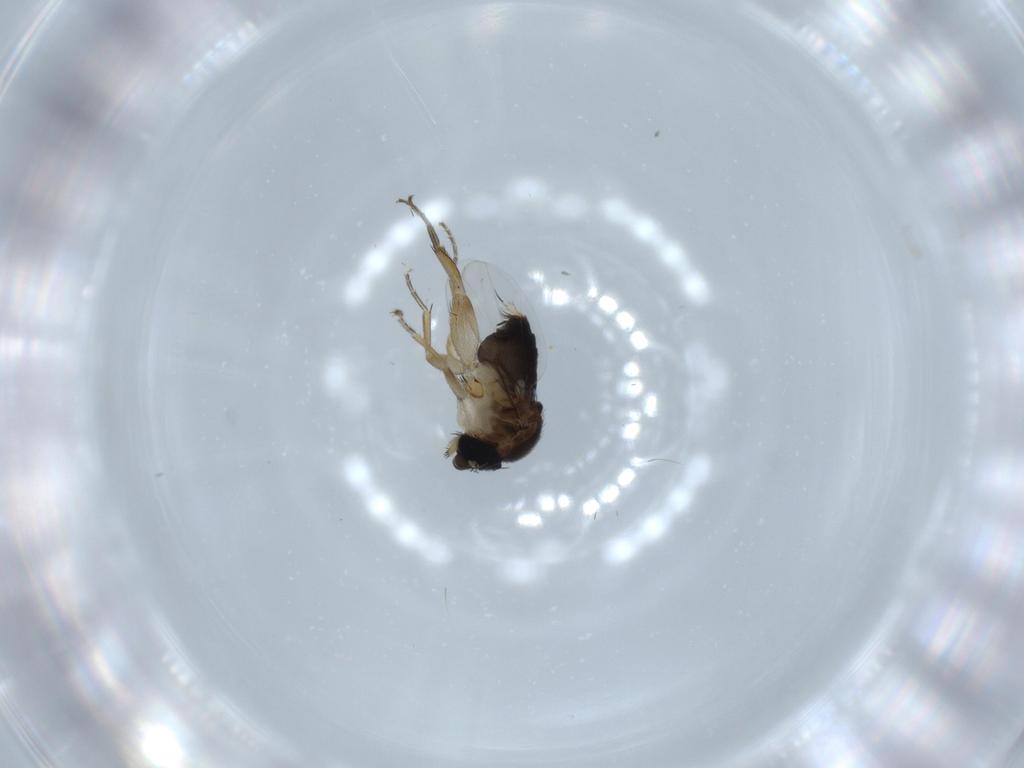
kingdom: Animalia
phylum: Arthropoda
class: Insecta
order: Diptera
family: Phoridae
